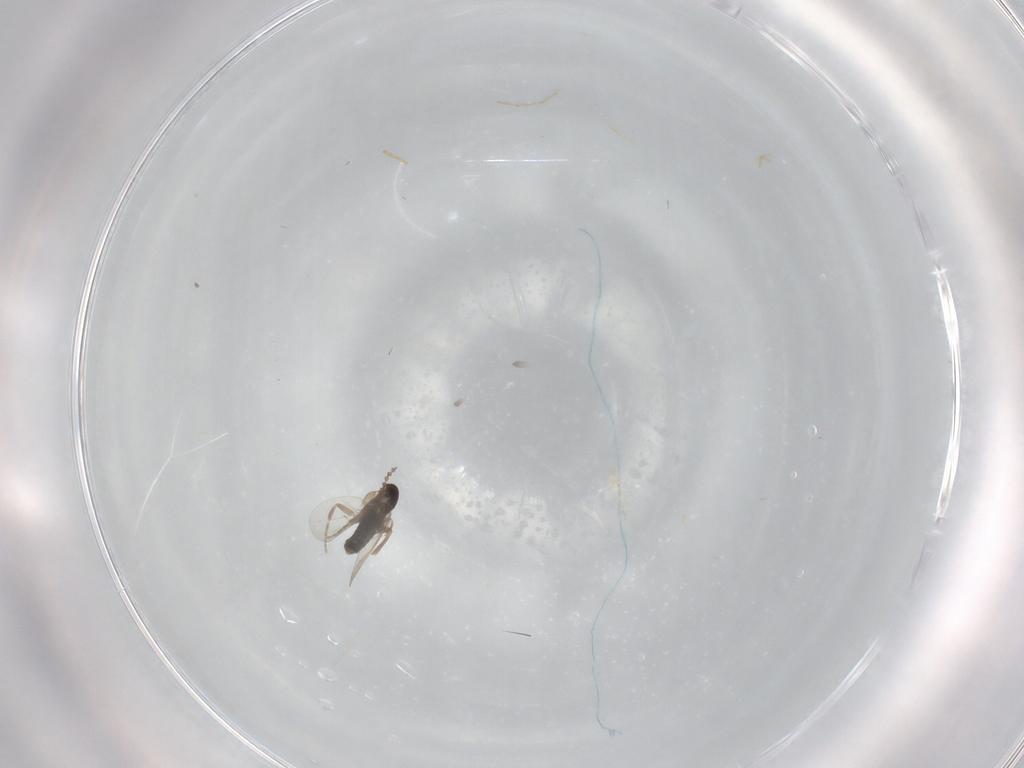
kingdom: Animalia
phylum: Arthropoda
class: Insecta
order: Diptera
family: Phoridae
